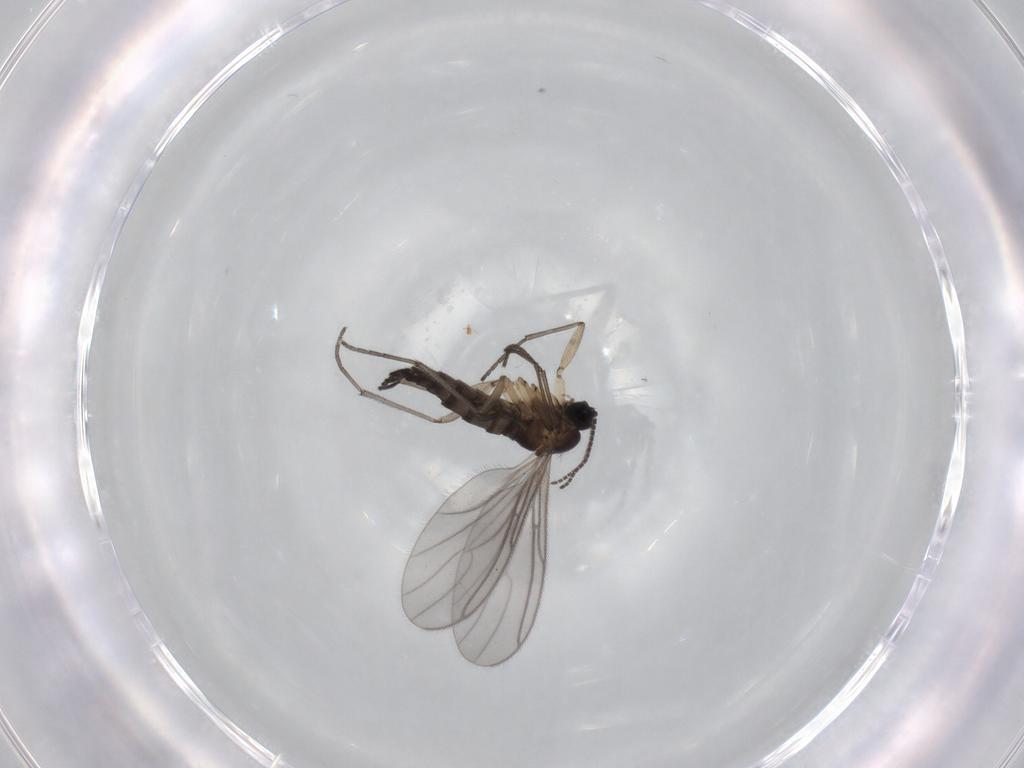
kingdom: Animalia
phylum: Arthropoda
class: Insecta
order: Diptera
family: Sciaridae
